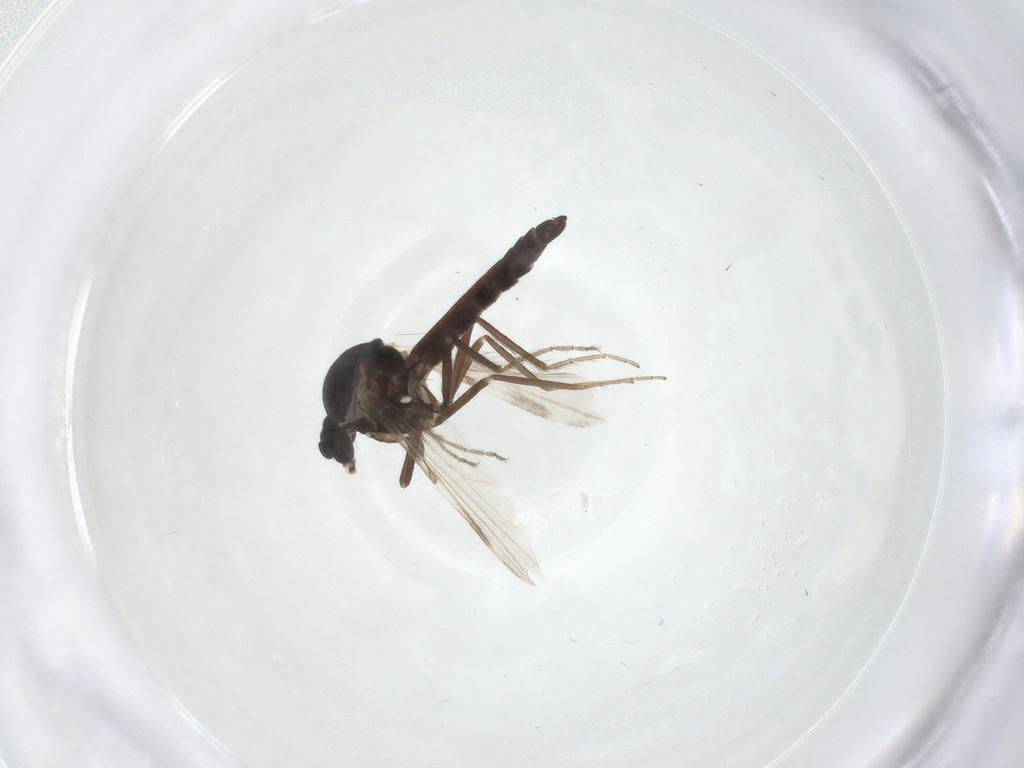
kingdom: Animalia
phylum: Arthropoda
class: Insecta
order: Diptera
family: Ceratopogonidae
